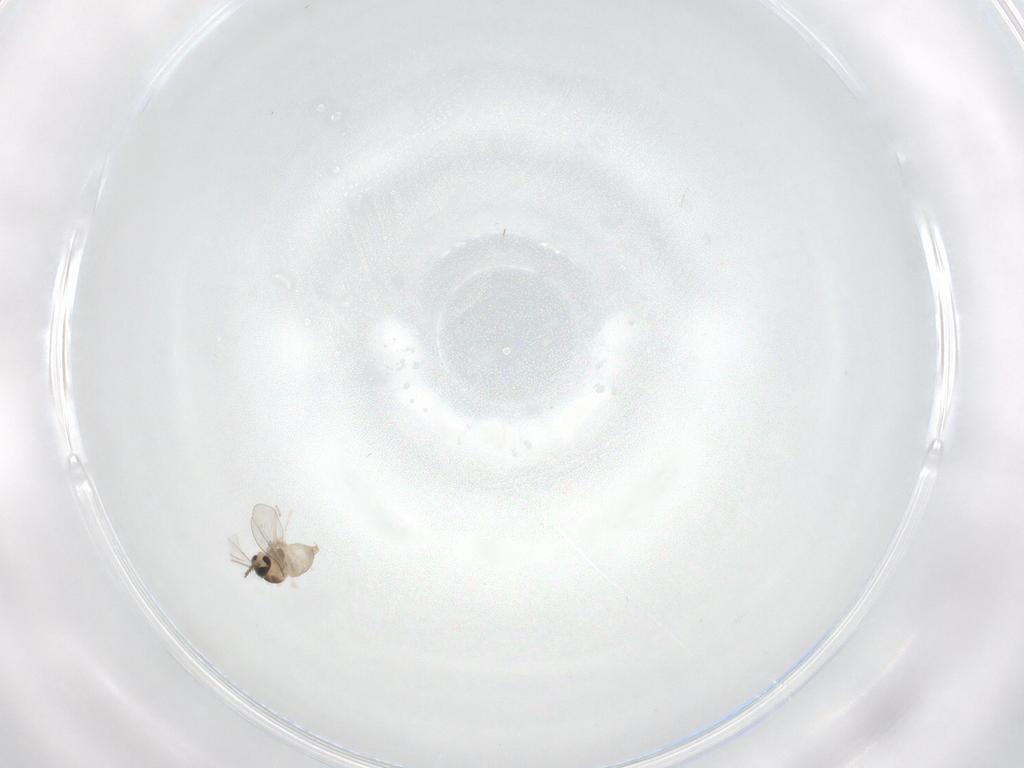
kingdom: Animalia
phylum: Arthropoda
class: Insecta
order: Diptera
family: Cecidomyiidae
